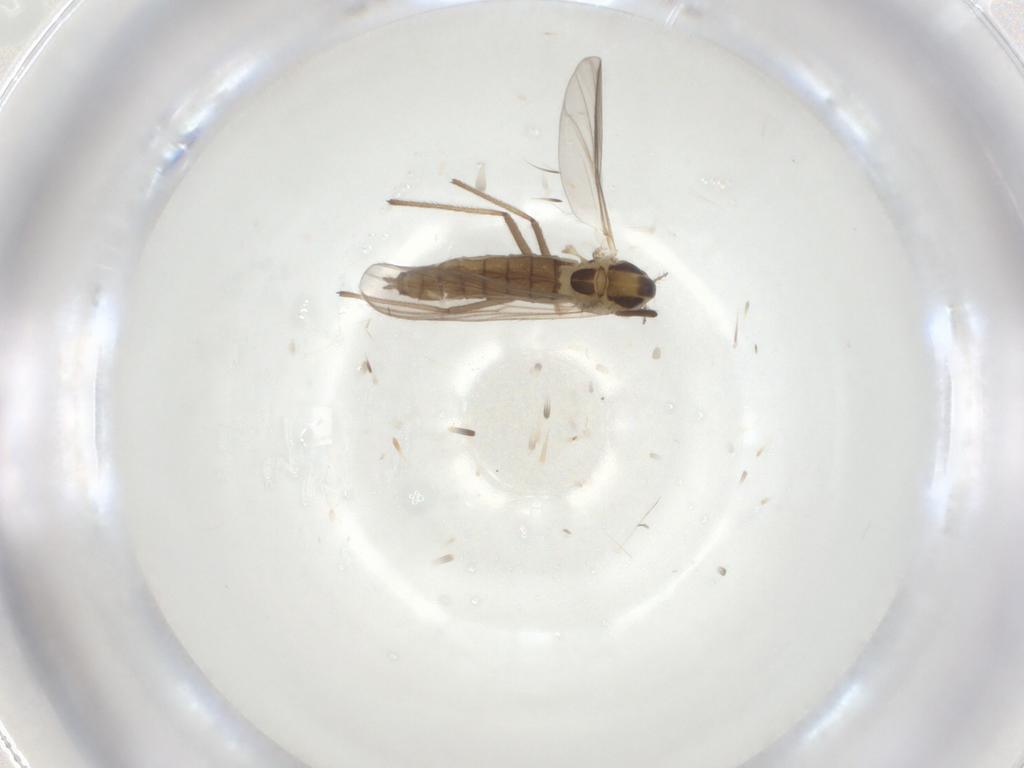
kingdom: Animalia
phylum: Arthropoda
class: Insecta
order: Diptera
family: Chironomidae
